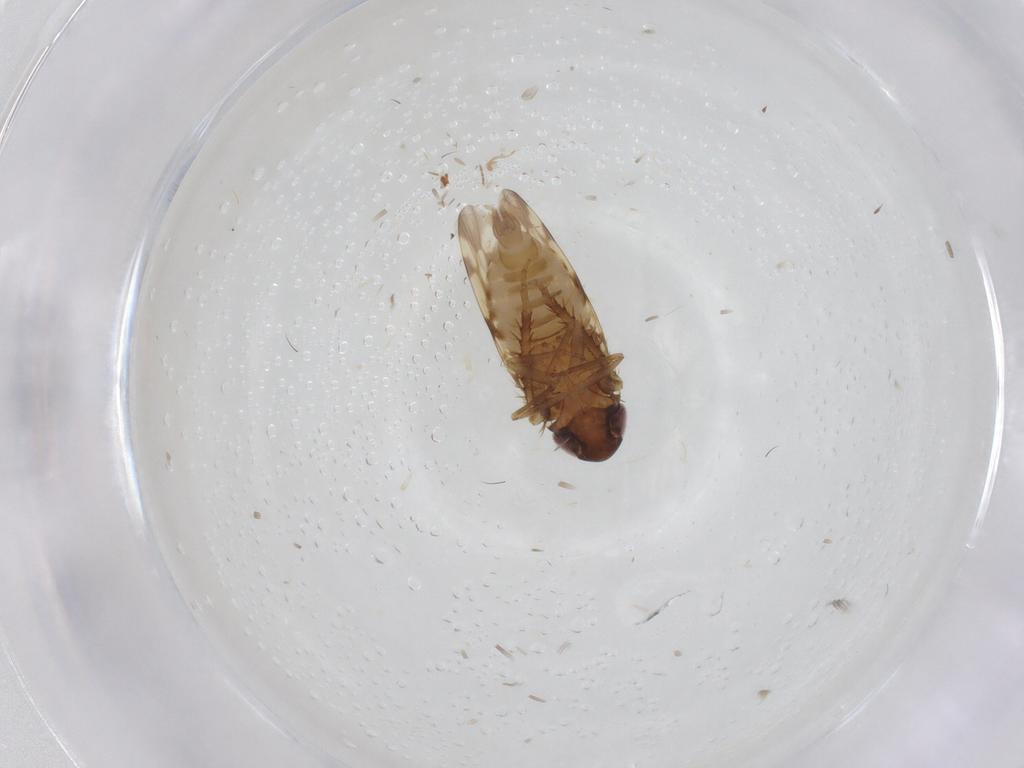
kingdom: Animalia
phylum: Arthropoda
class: Insecta
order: Hemiptera
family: Cicadellidae
